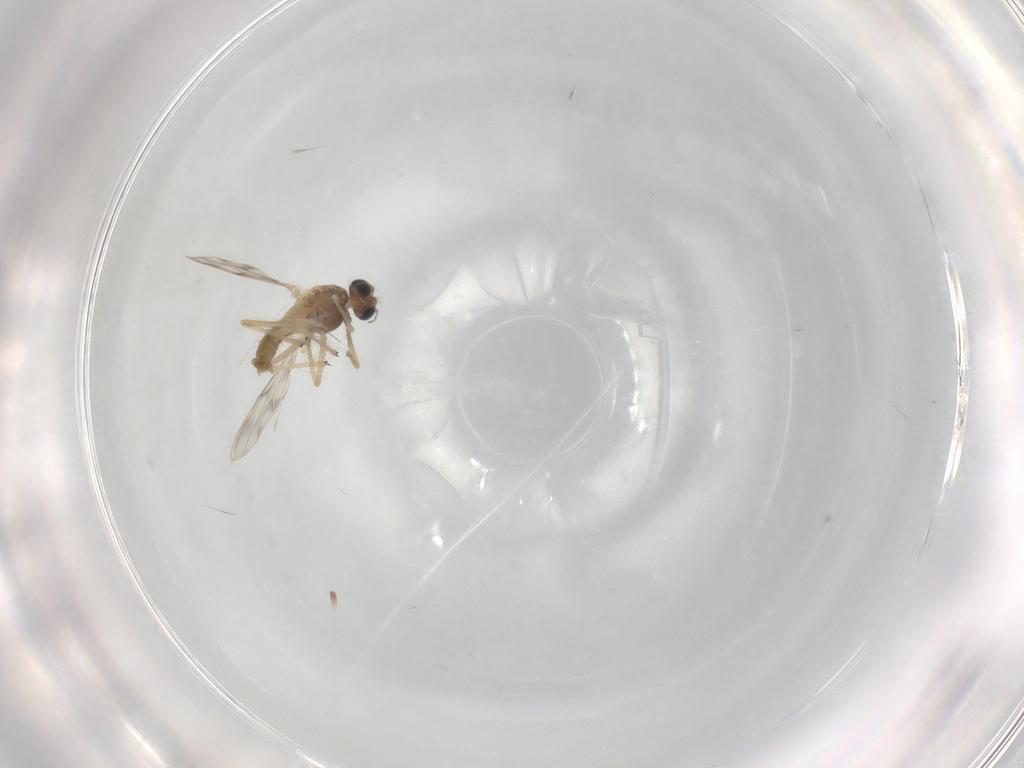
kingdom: Animalia
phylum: Arthropoda
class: Insecta
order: Diptera
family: Chironomidae
